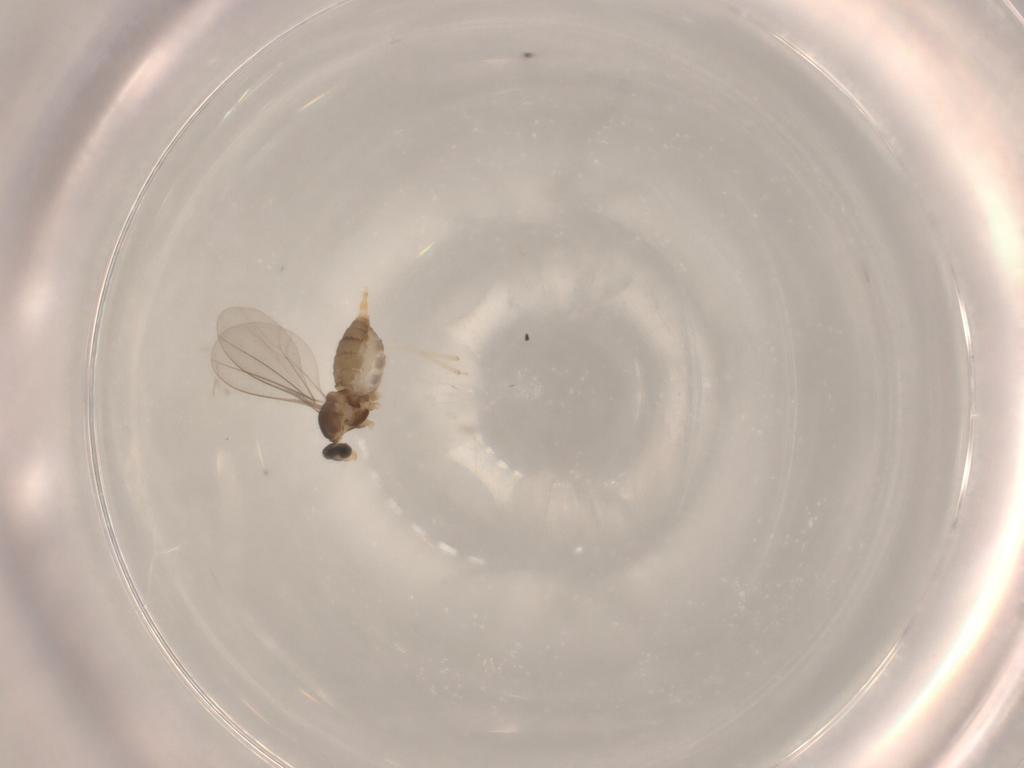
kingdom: Animalia
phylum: Arthropoda
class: Insecta
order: Diptera
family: Cecidomyiidae
